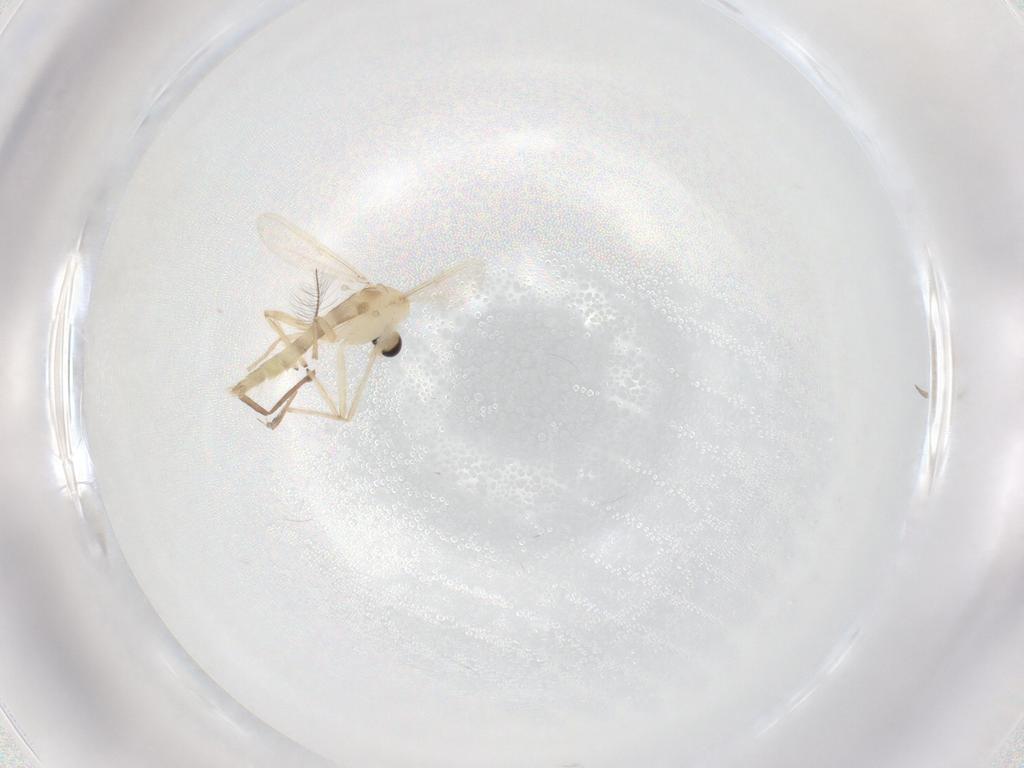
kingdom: Animalia
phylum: Arthropoda
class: Insecta
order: Diptera
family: Chironomidae
